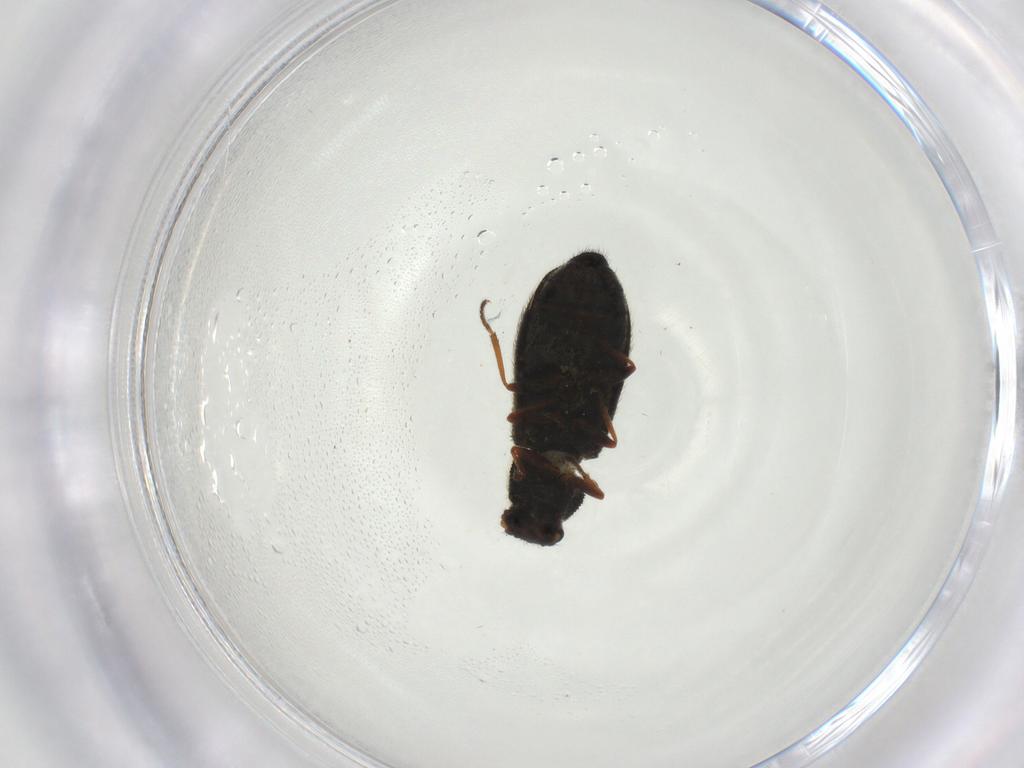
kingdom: Animalia
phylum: Arthropoda
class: Insecta
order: Coleoptera
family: Melyridae
